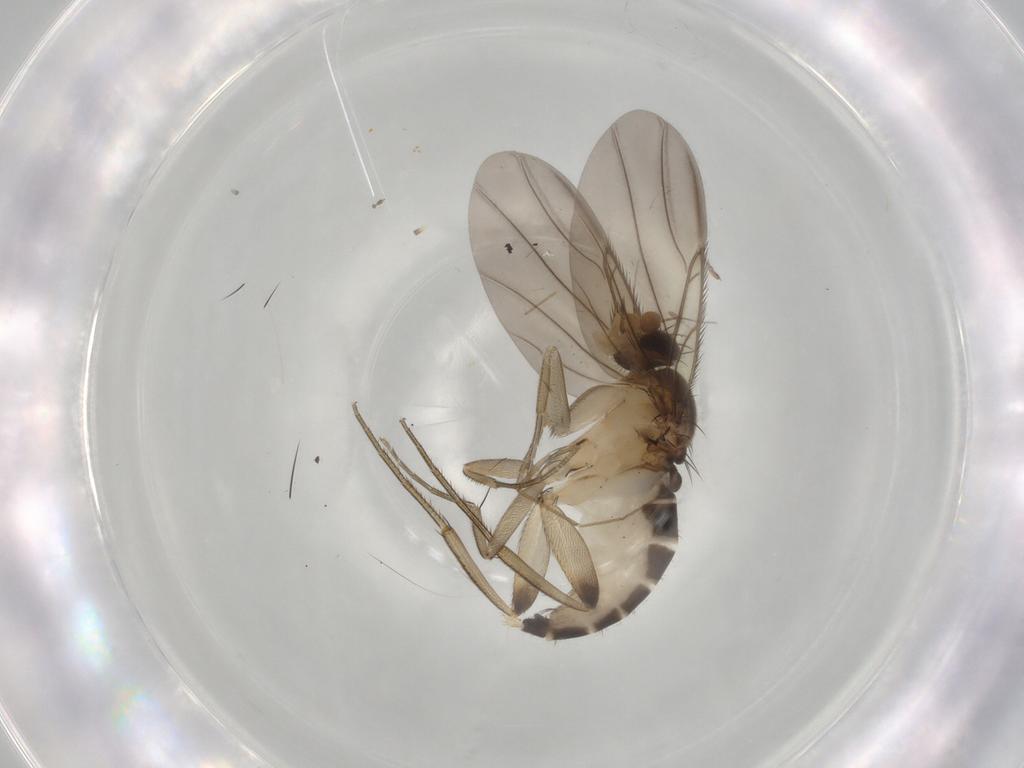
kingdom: Animalia
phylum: Arthropoda
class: Insecta
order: Diptera
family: Phoridae
